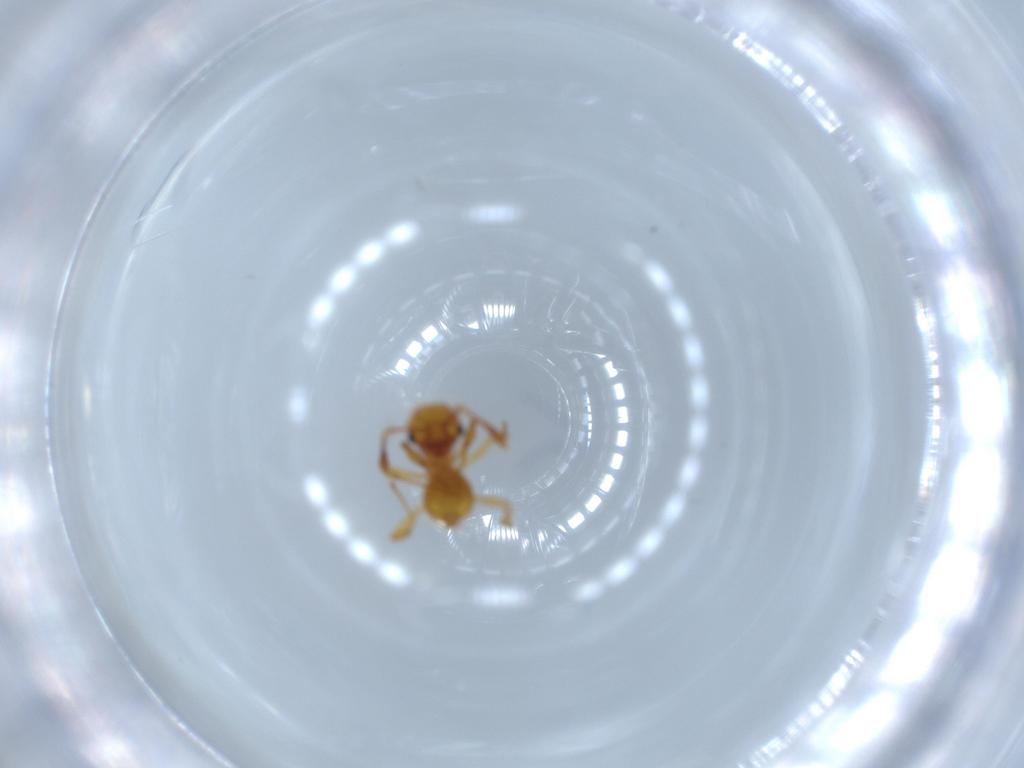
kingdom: Animalia
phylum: Arthropoda
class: Insecta
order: Hymenoptera
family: Formicidae
